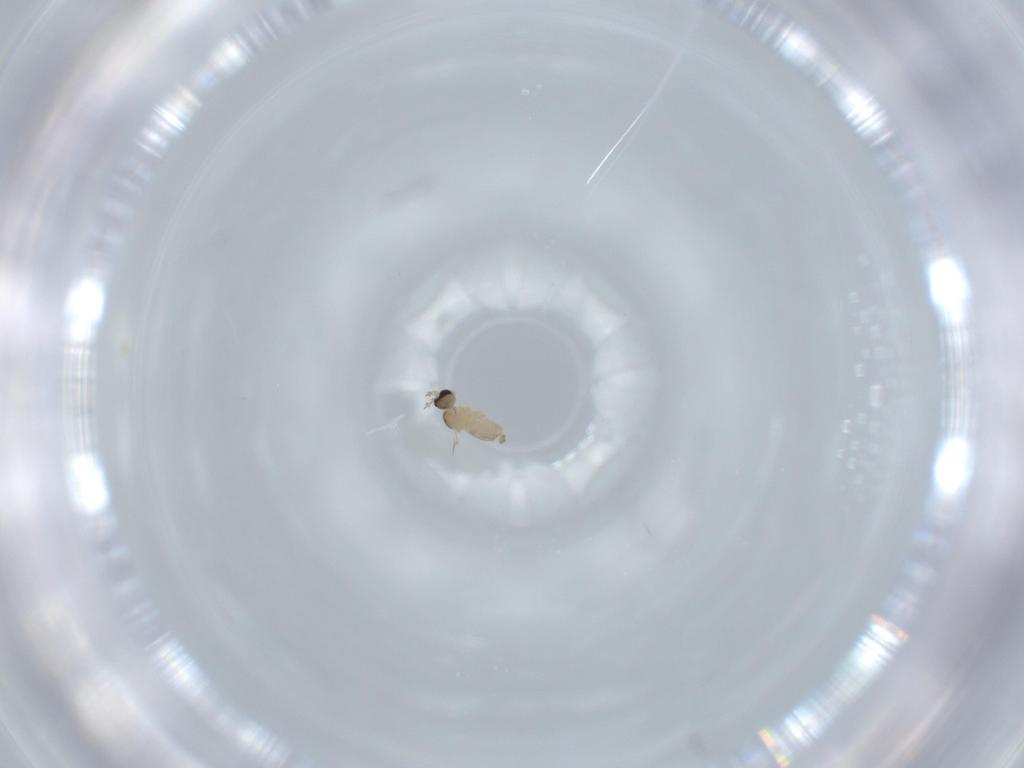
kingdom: Animalia
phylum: Arthropoda
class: Insecta
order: Diptera
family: Cecidomyiidae
